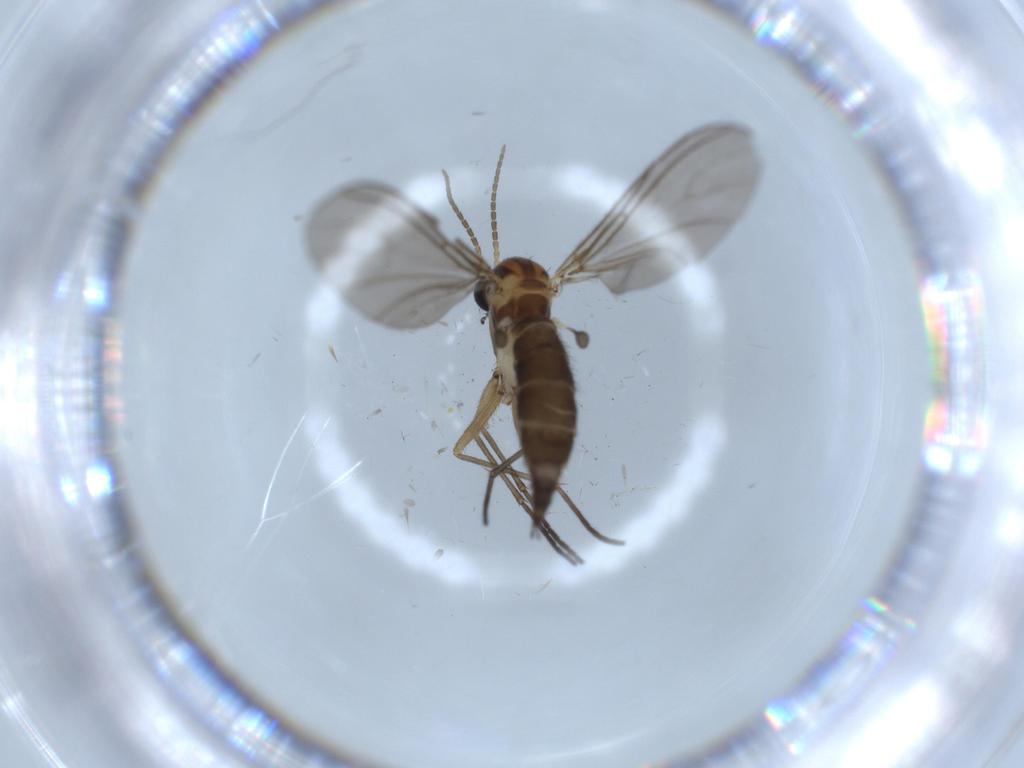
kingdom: Animalia
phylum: Arthropoda
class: Insecta
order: Diptera
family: Sciaridae
